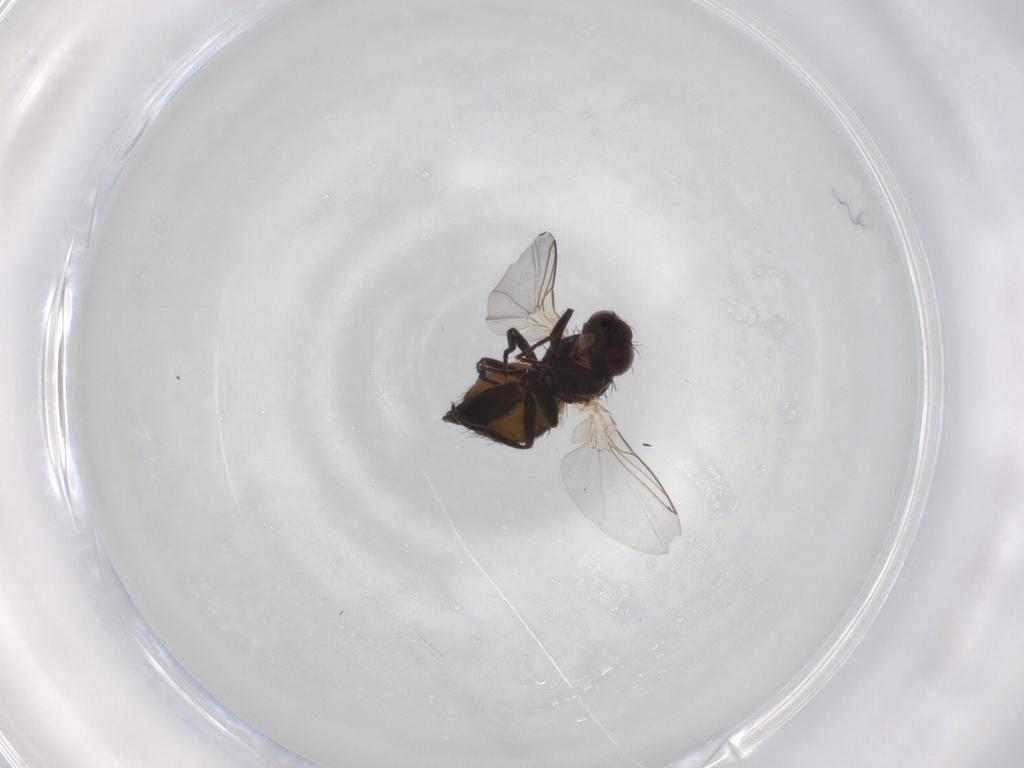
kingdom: Animalia
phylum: Arthropoda
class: Insecta
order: Diptera
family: Agromyzidae
